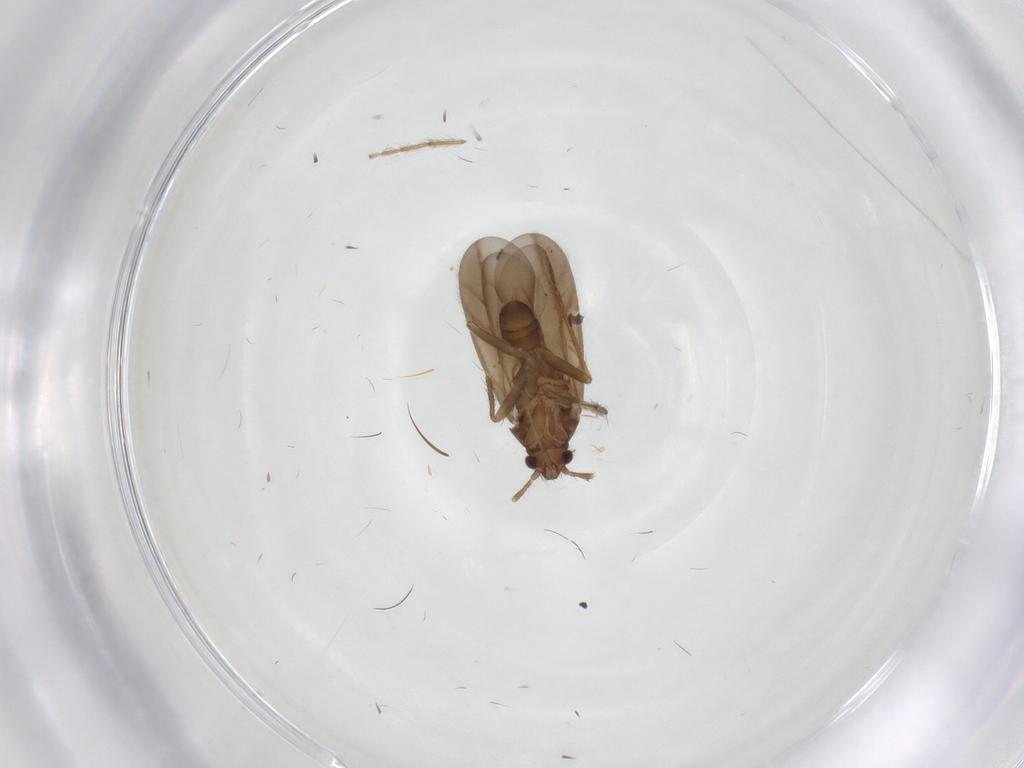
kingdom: Animalia
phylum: Arthropoda
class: Insecta
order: Hemiptera
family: Ceratocombidae
